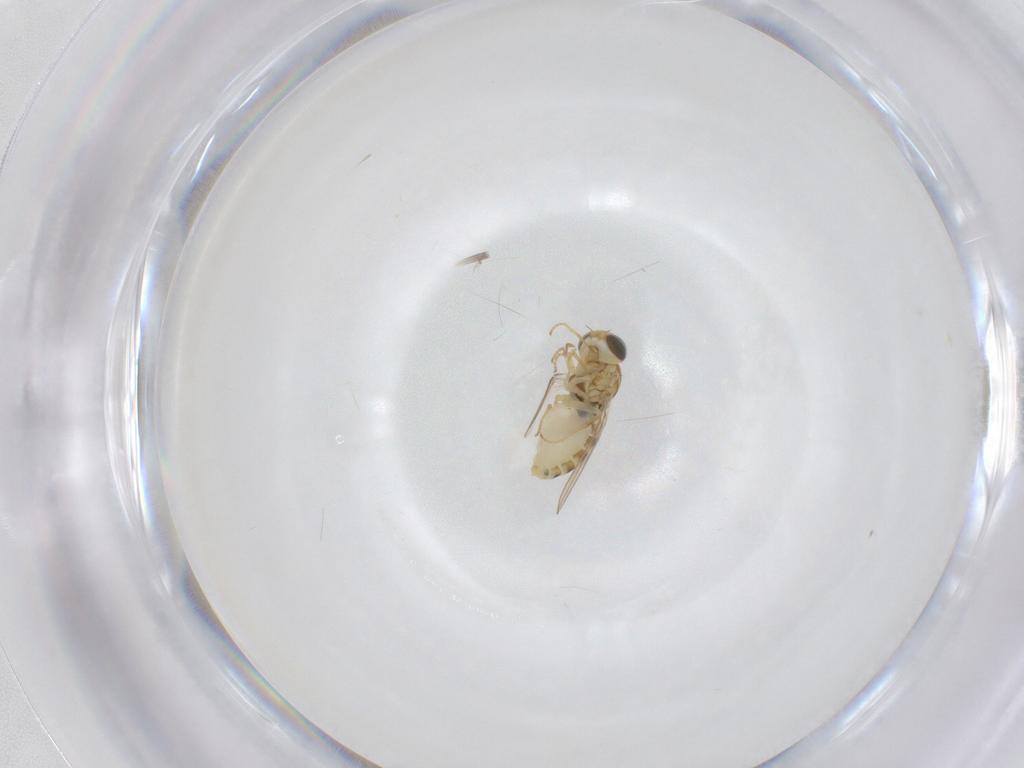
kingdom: Animalia
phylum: Arthropoda
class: Insecta
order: Diptera
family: Chyromyidae
